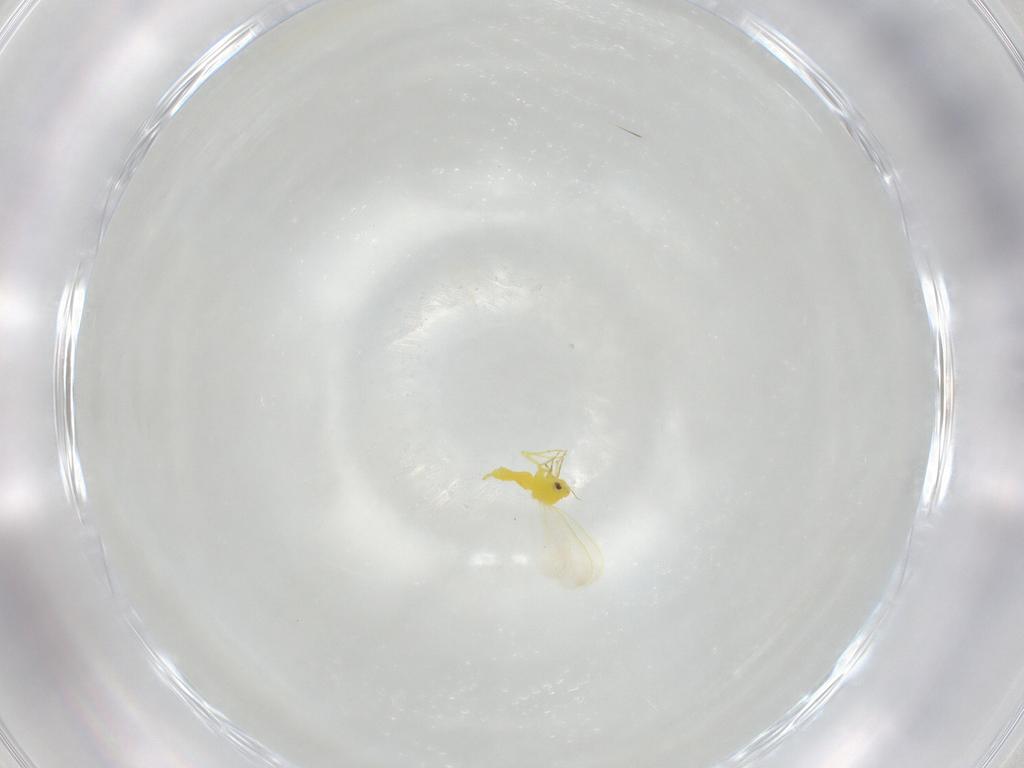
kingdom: Animalia
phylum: Arthropoda
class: Insecta
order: Hemiptera
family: Aleyrodidae
